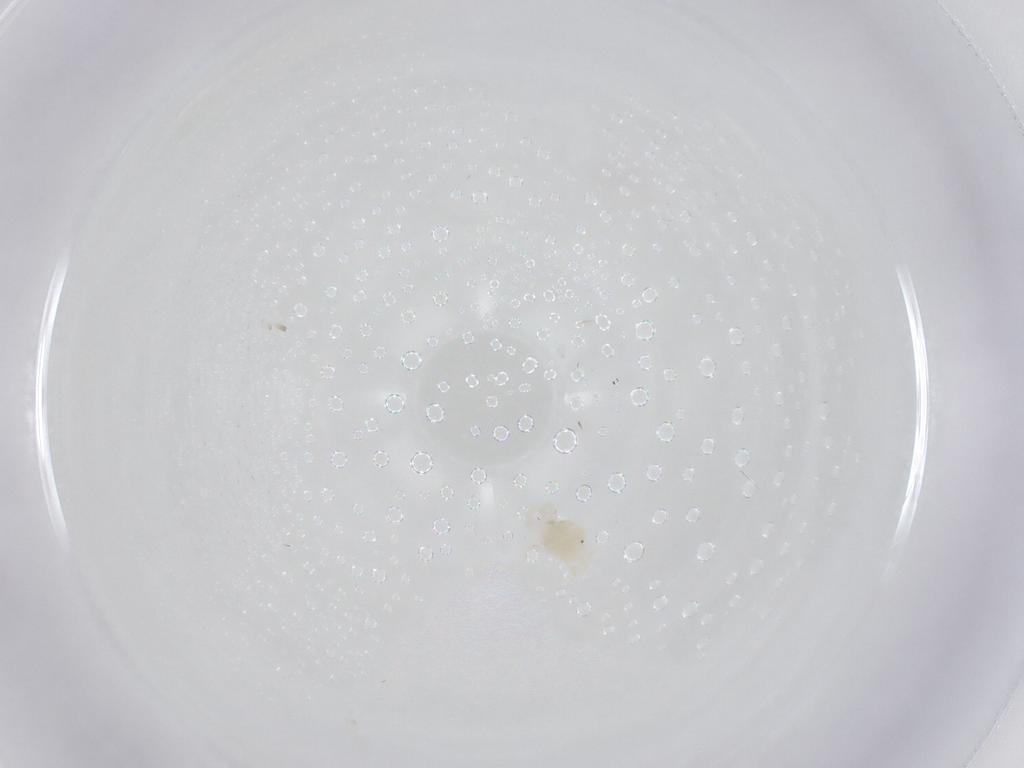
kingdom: Animalia
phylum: Arthropoda
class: Arachnida
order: Trombidiformes
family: Eriophyidae
